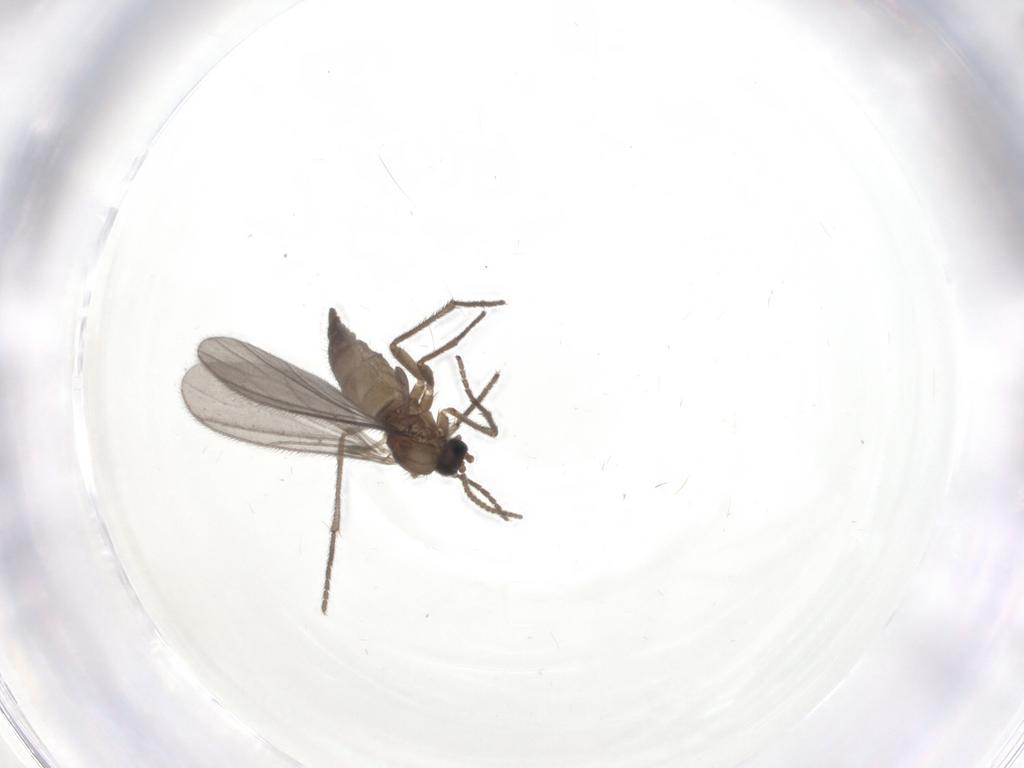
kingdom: Animalia
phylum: Arthropoda
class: Insecta
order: Diptera
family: Sciaridae
